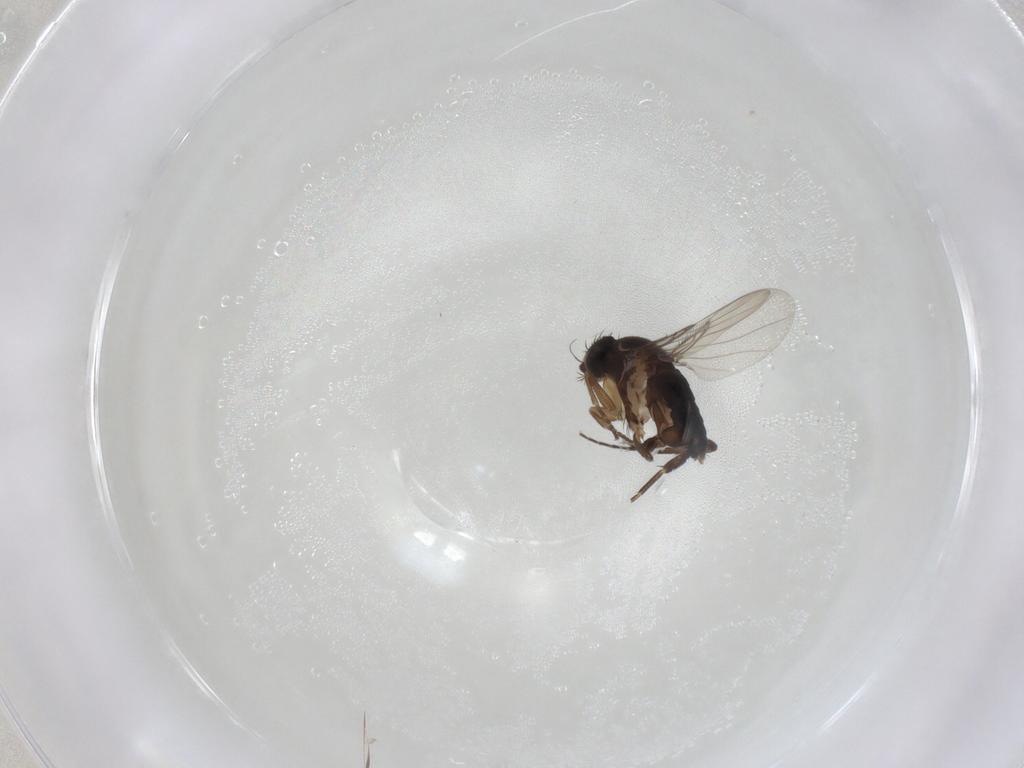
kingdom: Animalia
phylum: Arthropoda
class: Insecta
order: Diptera
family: Phoridae
